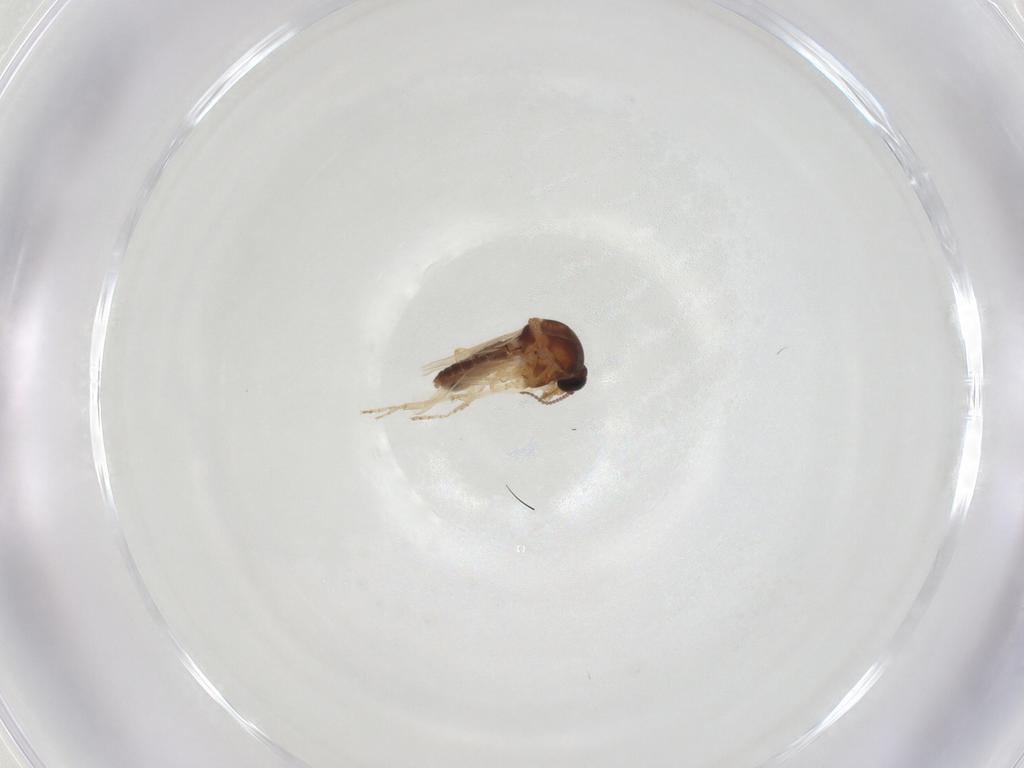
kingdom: Animalia
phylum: Arthropoda
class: Insecta
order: Diptera
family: Ceratopogonidae
